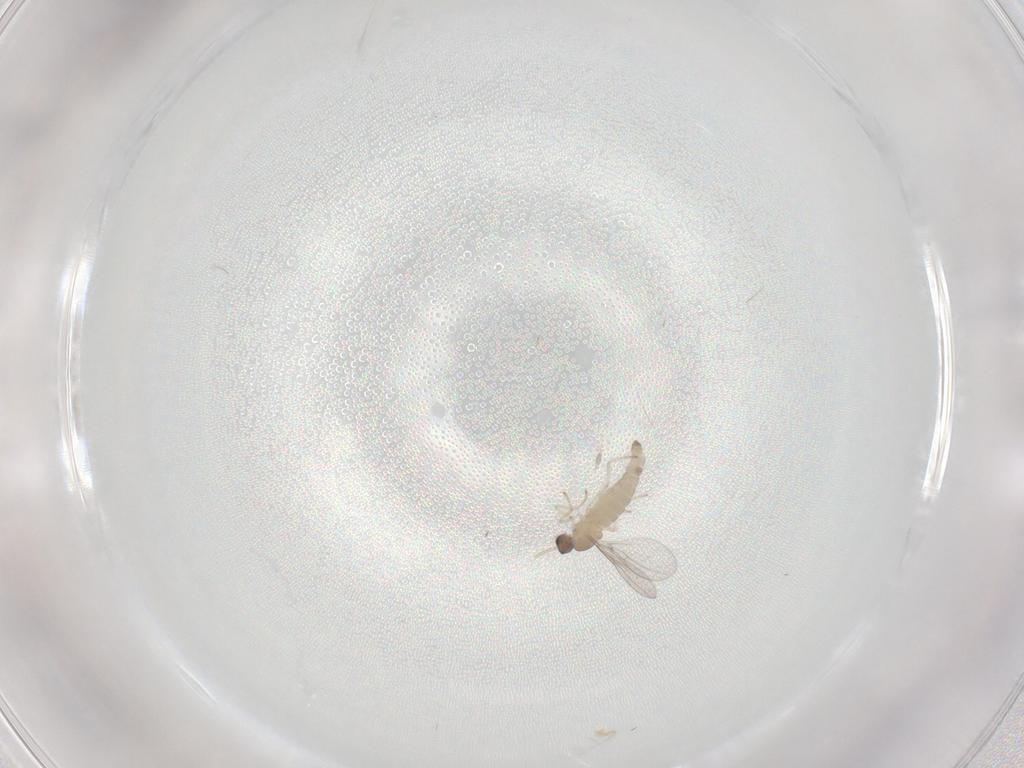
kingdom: Animalia
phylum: Arthropoda
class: Insecta
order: Diptera
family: Cecidomyiidae
